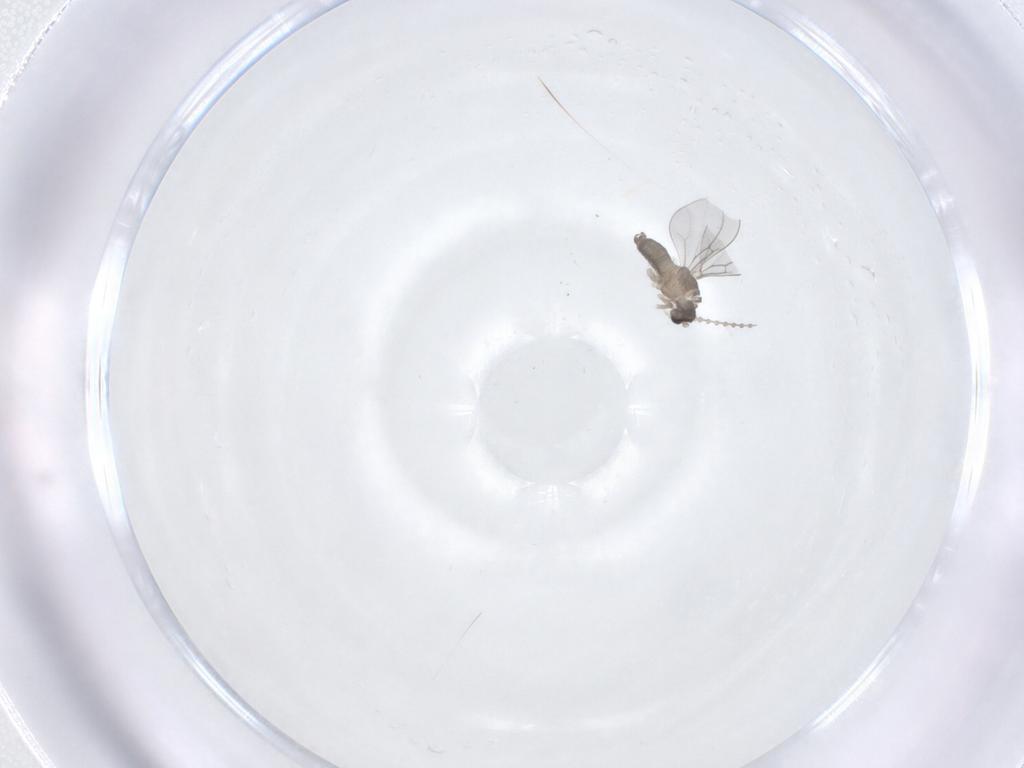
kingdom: Animalia
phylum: Arthropoda
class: Insecta
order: Diptera
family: Cecidomyiidae
